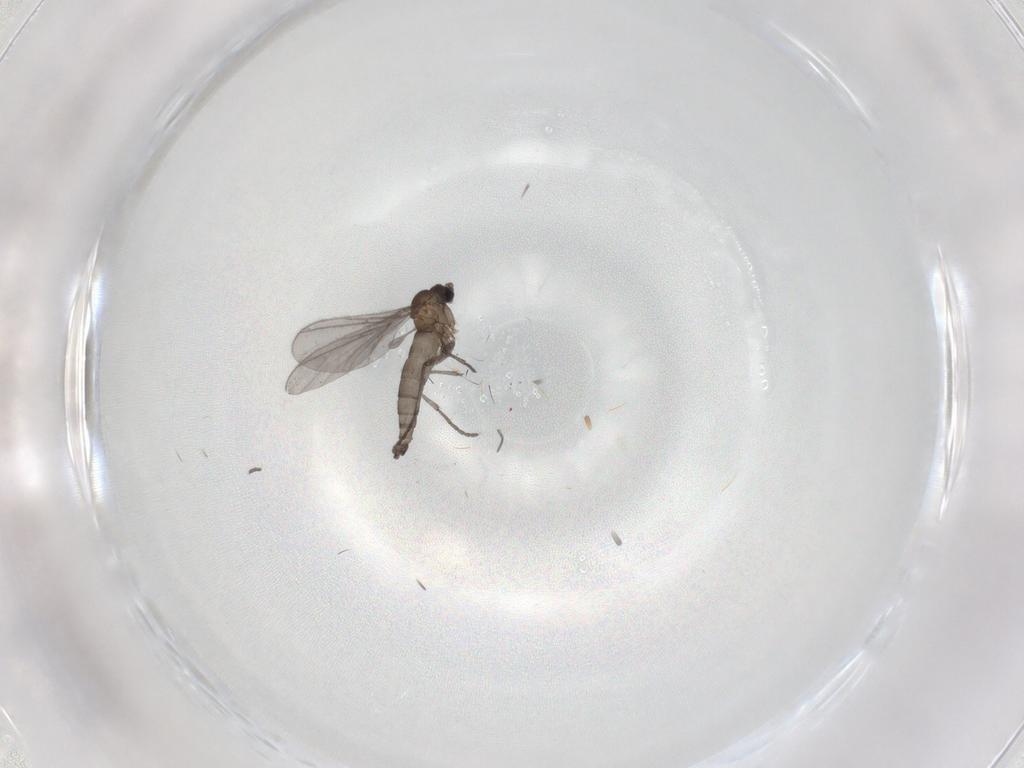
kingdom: Animalia
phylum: Arthropoda
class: Insecta
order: Diptera
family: Sciaridae
